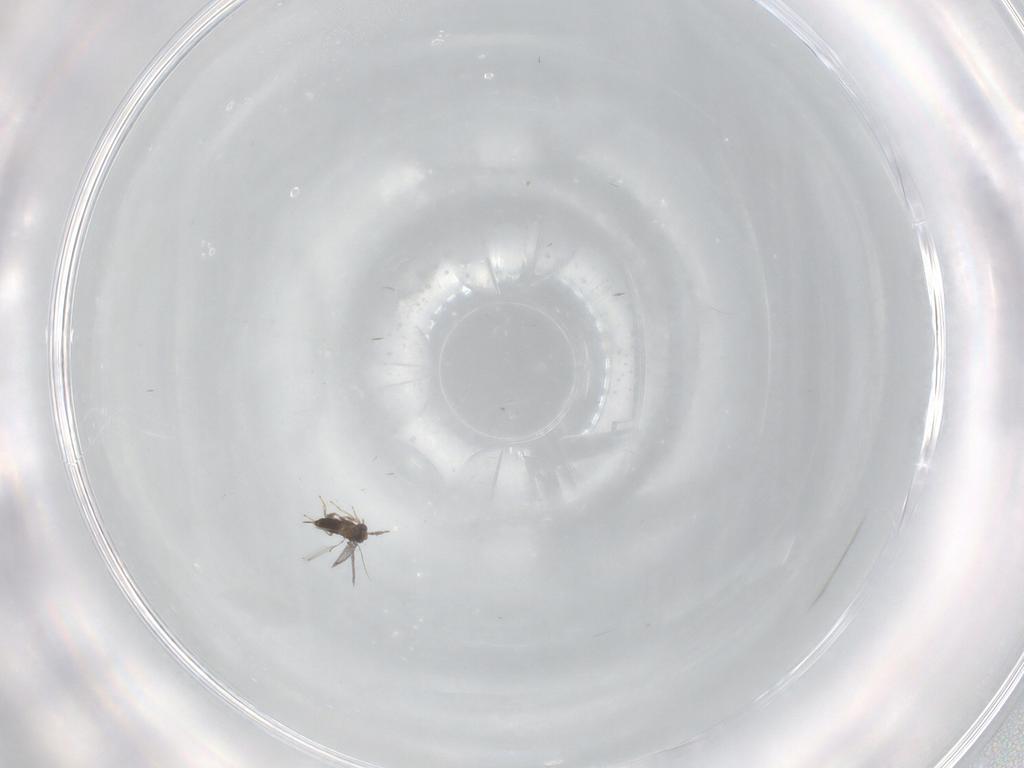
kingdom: Animalia
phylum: Arthropoda
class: Insecta
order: Hymenoptera
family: Trichogrammatidae
